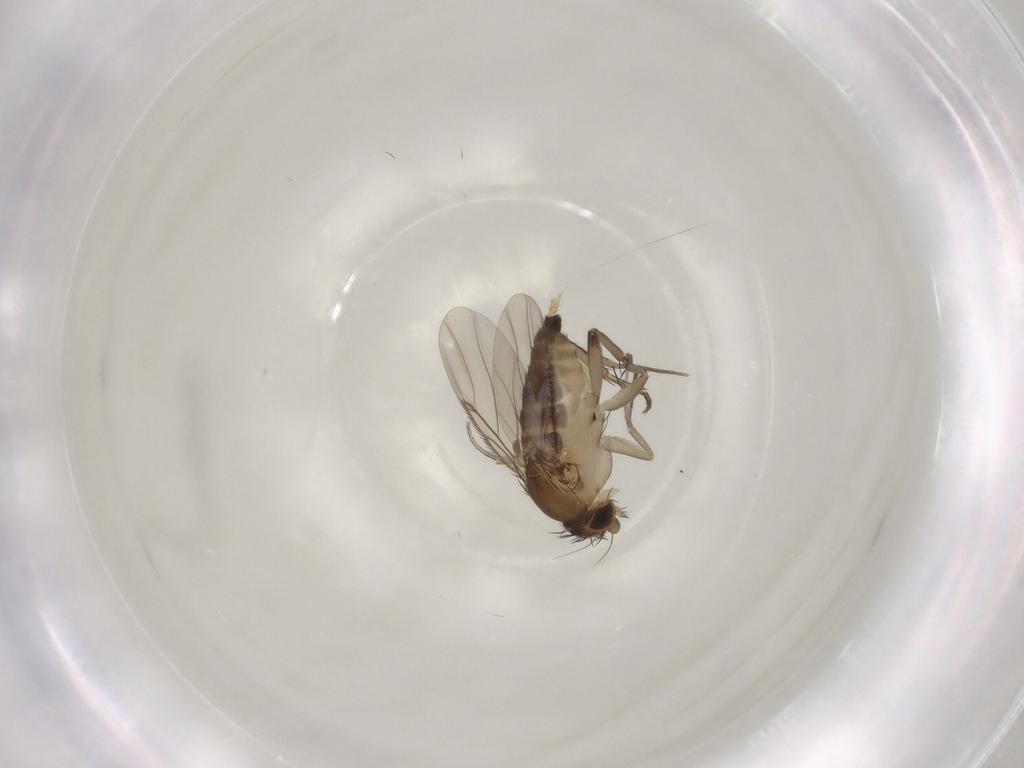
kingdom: Animalia
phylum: Arthropoda
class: Insecta
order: Diptera
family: Phoridae
